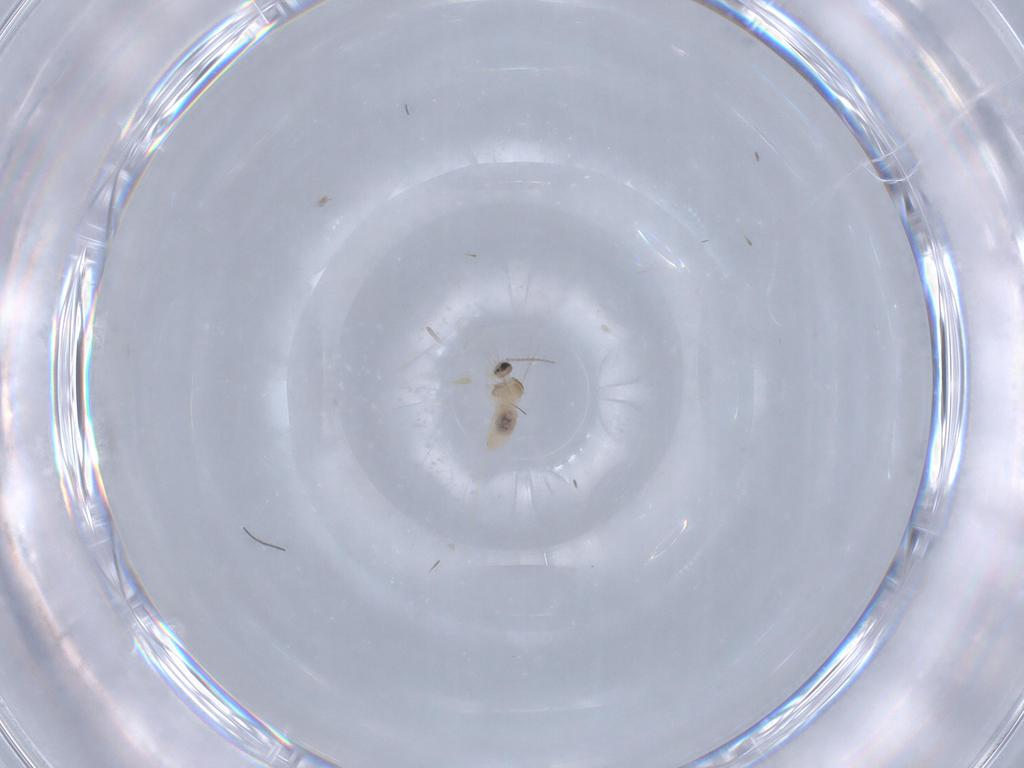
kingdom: Animalia
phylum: Arthropoda
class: Insecta
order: Diptera
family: Cecidomyiidae
